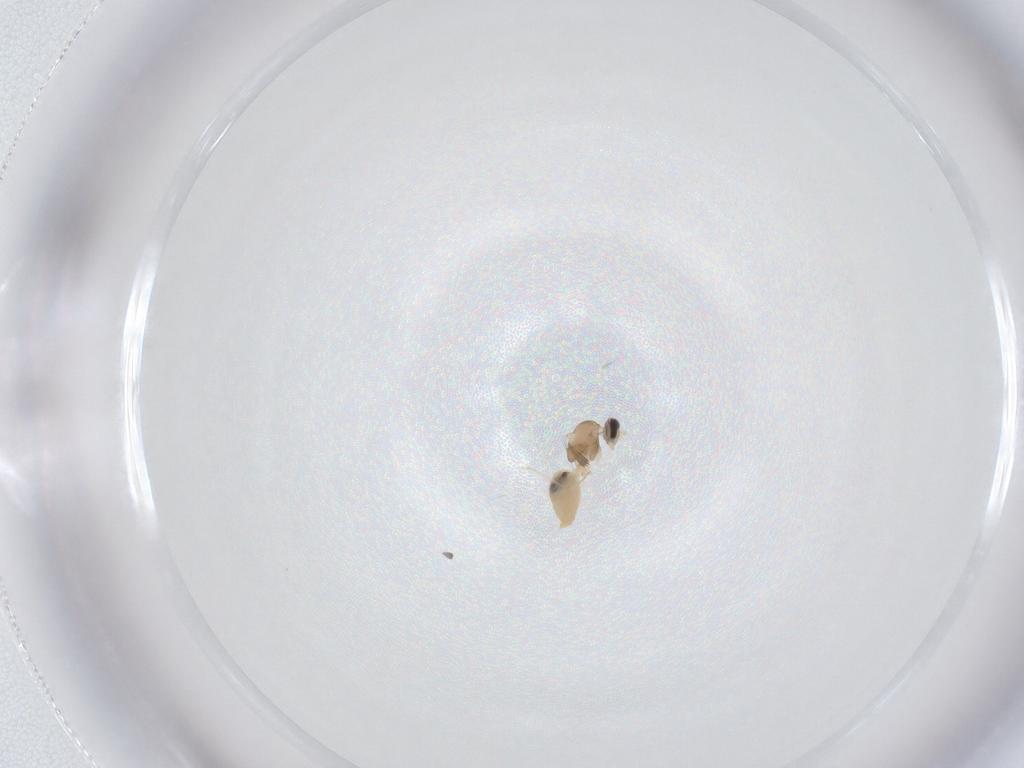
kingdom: Animalia
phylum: Arthropoda
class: Insecta
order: Diptera
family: Cecidomyiidae
